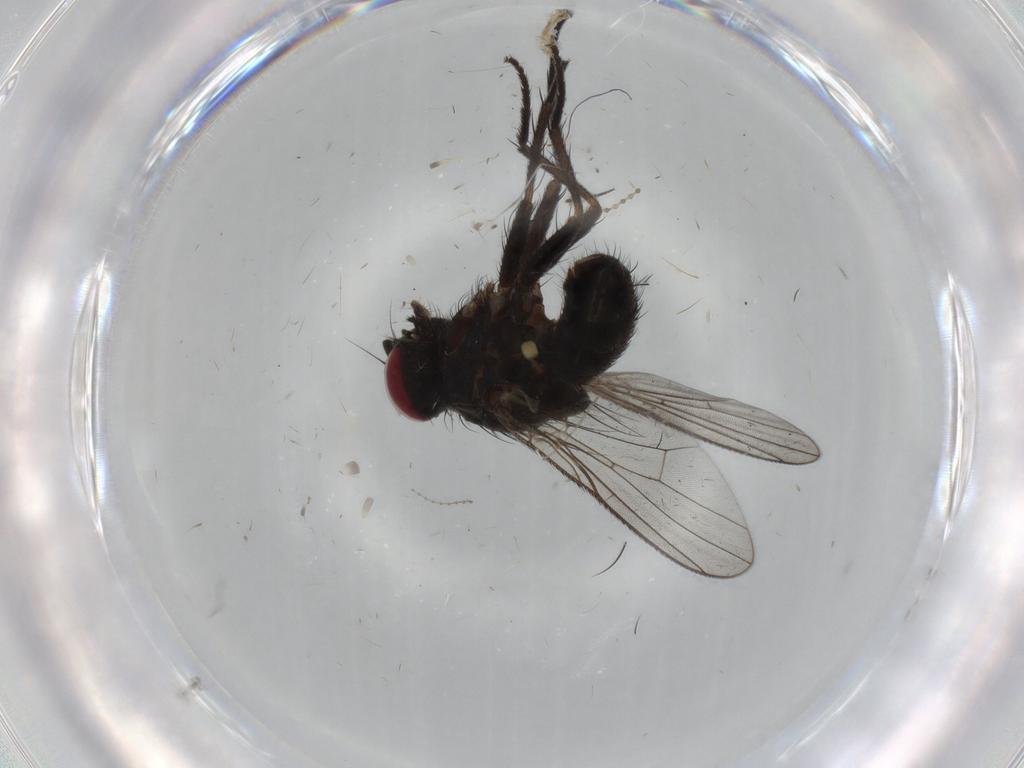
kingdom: Animalia
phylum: Arthropoda
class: Insecta
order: Diptera
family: Muscidae
